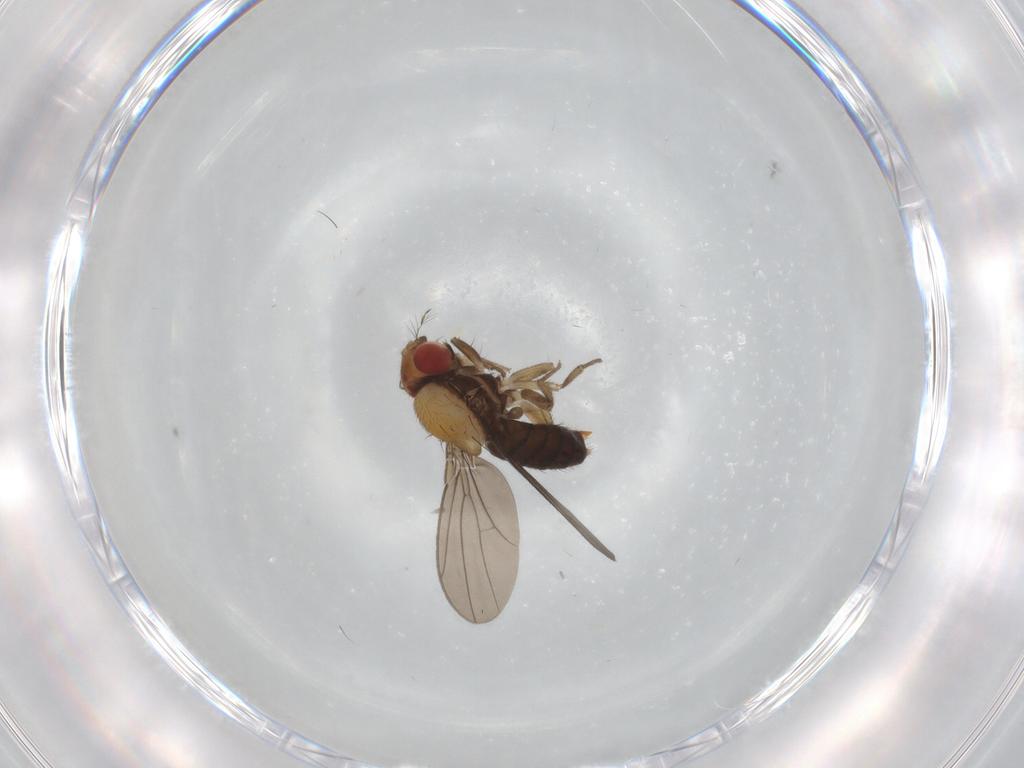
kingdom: Animalia
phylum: Arthropoda
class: Insecta
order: Diptera
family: Drosophilidae
